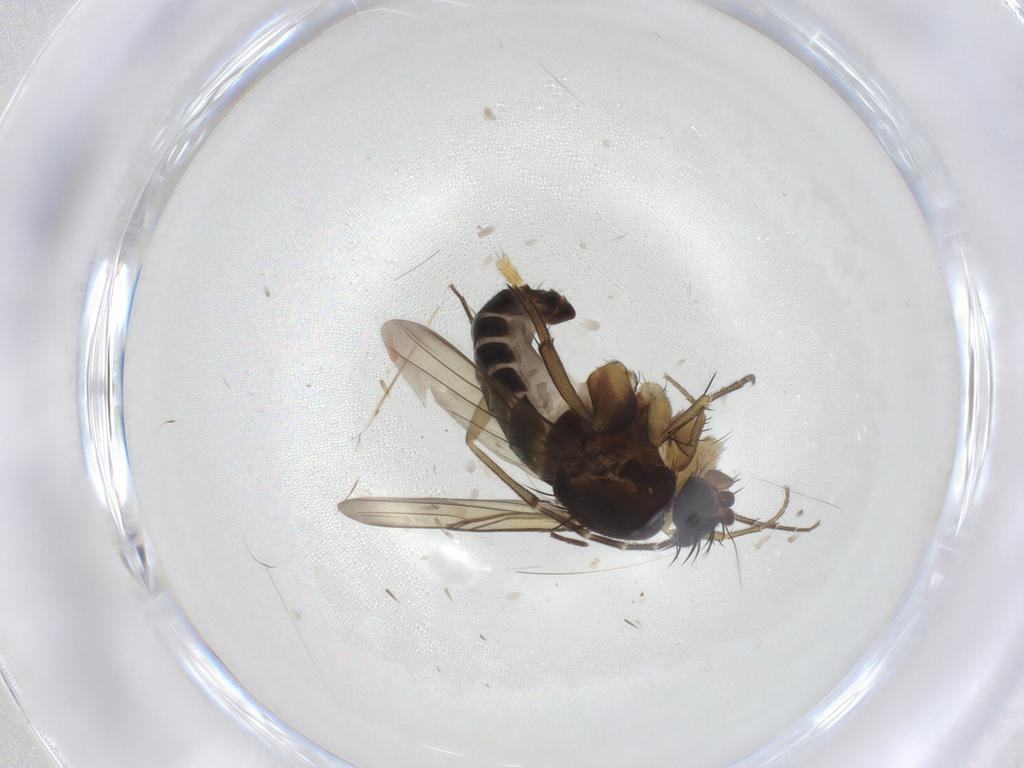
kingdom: Animalia
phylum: Arthropoda
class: Insecta
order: Diptera
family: Phoridae
